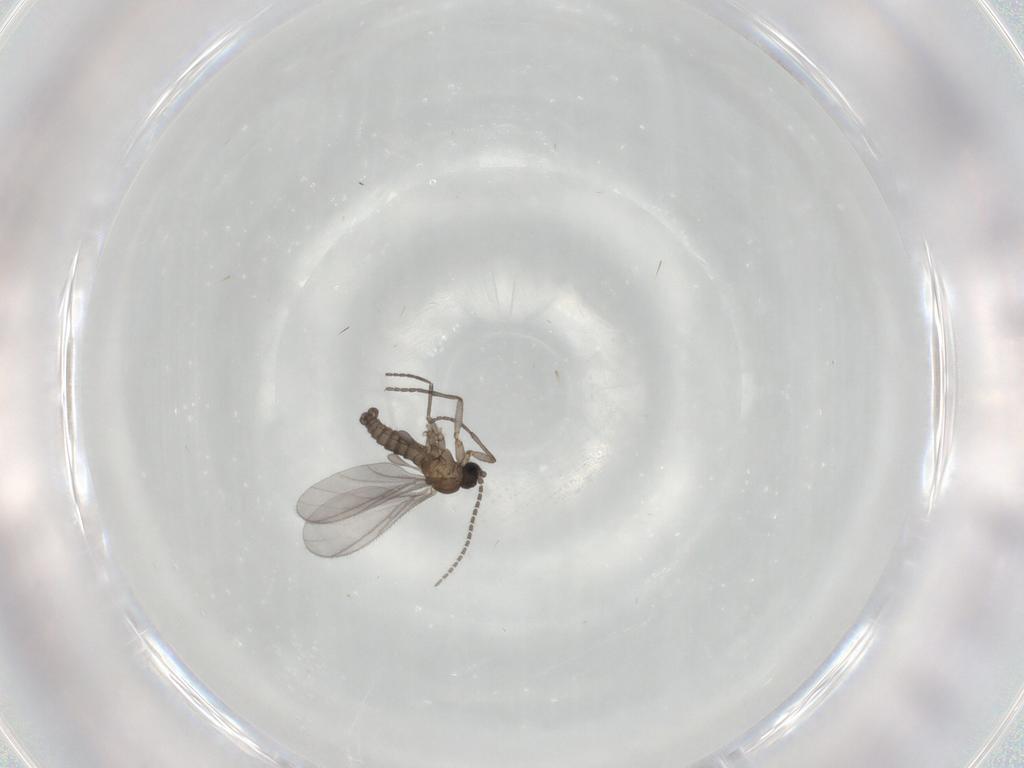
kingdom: Animalia
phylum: Arthropoda
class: Insecta
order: Diptera
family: Sciaridae
